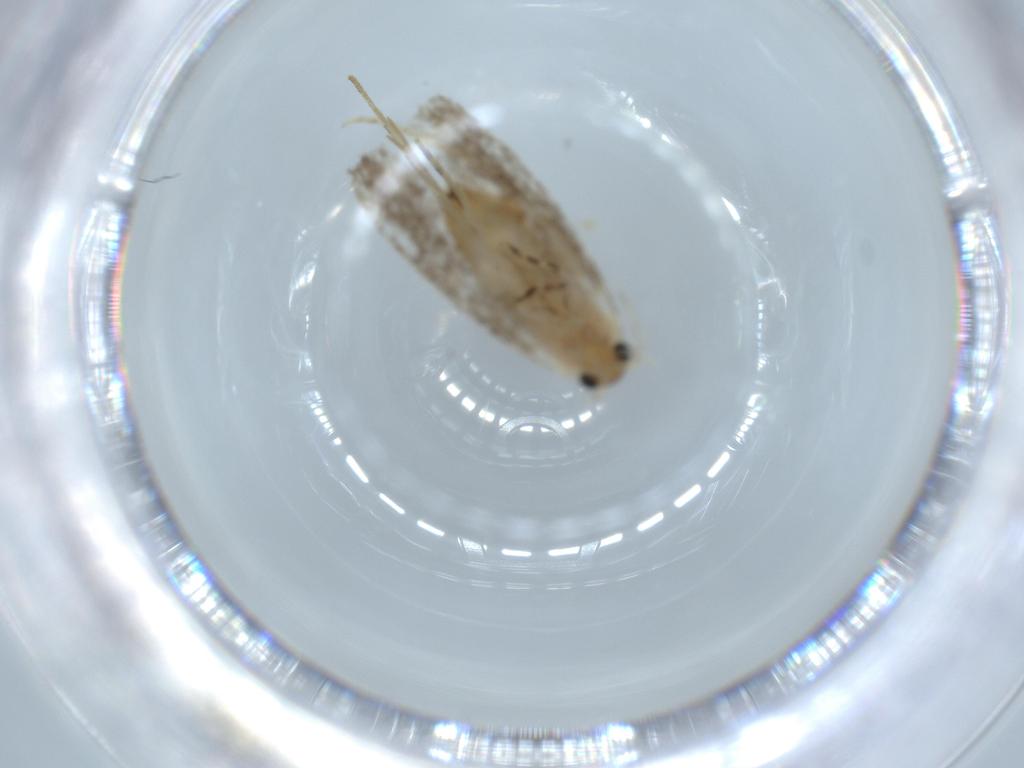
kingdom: Animalia
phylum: Arthropoda
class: Insecta
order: Lepidoptera
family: Tineidae
